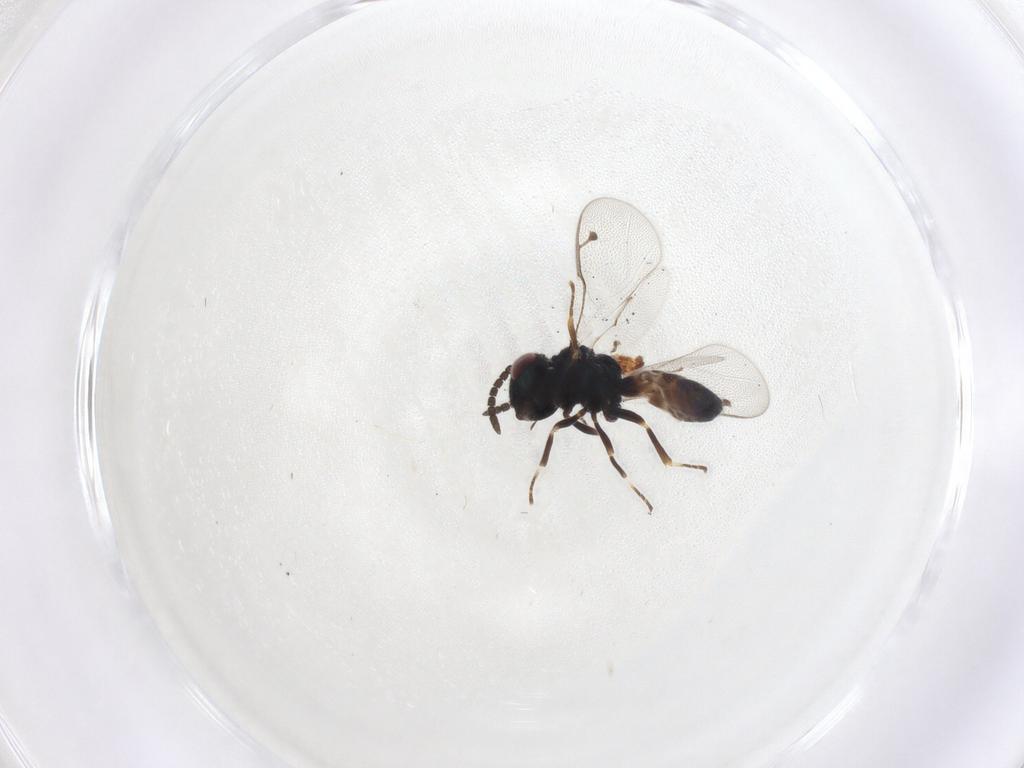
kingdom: Animalia
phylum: Arthropoda
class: Insecta
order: Hymenoptera
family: Pteromalidae
